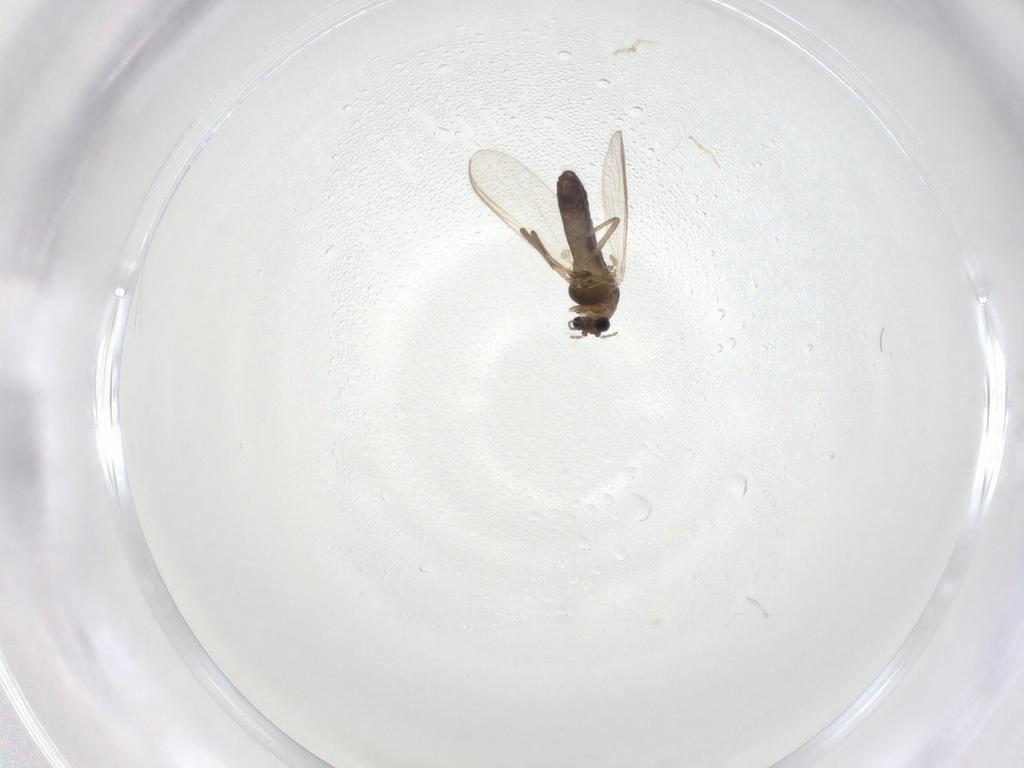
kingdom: Animalia
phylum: Arthropoda
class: Insecta
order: Diptera
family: Chironomidae
